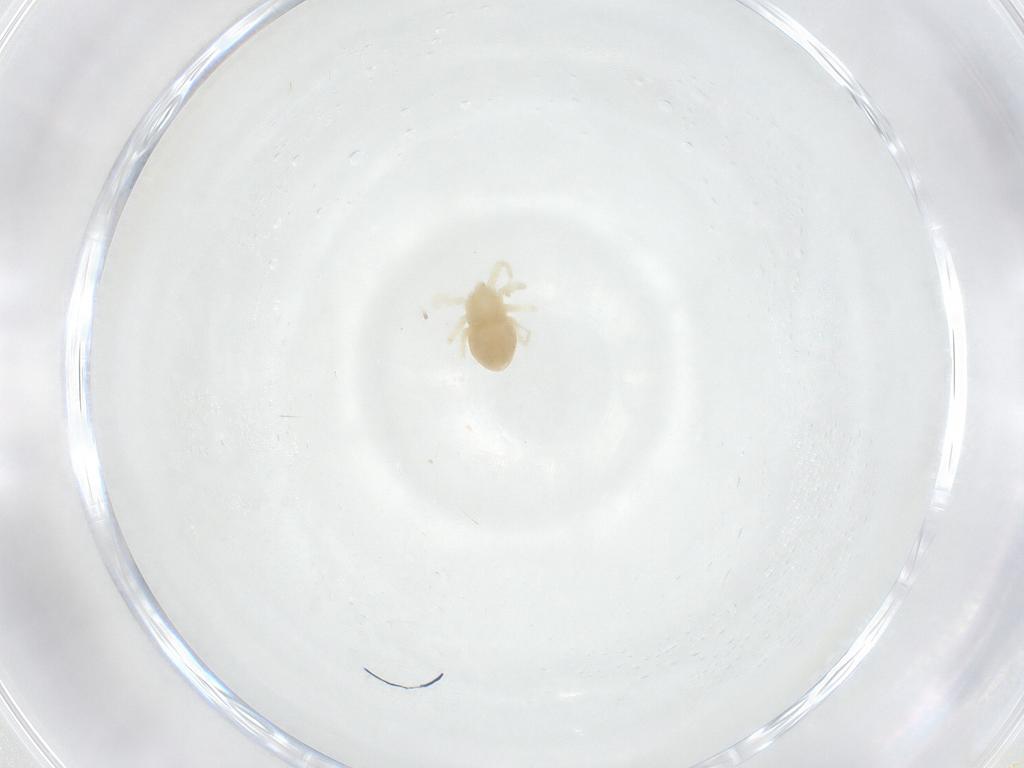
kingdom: Animalia
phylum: Arthropoda
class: Arachnida
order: Trombidiformes
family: Anystidae
